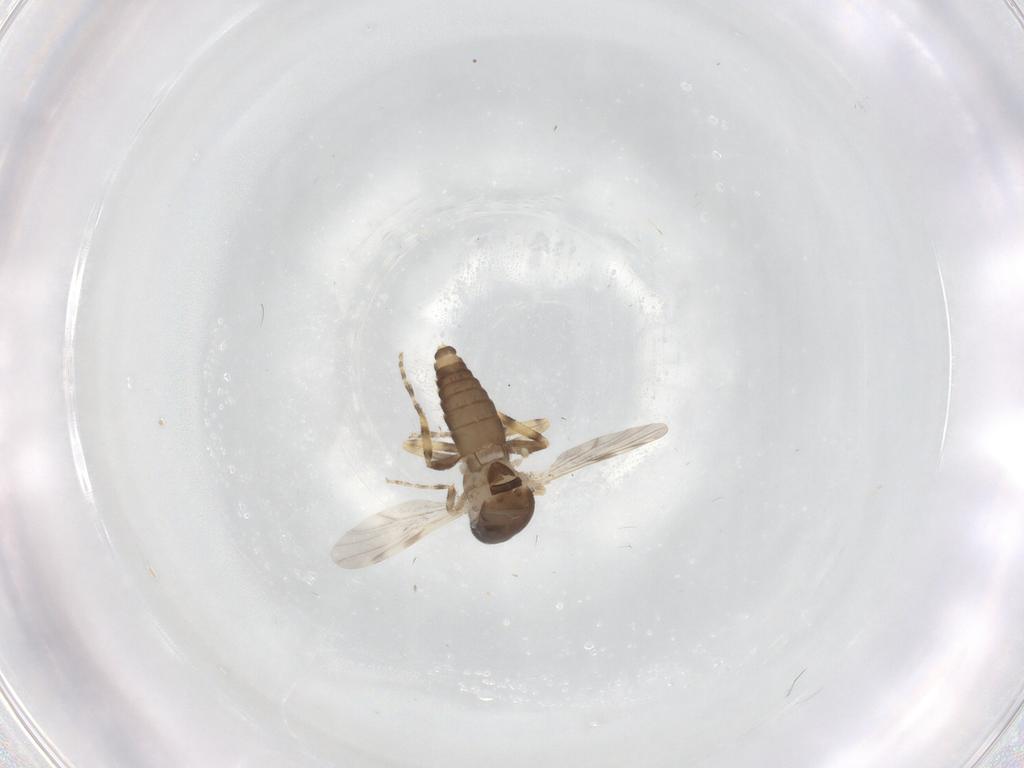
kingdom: Animalia
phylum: Arthropoda
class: Insecta
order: Diptera
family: Ceratopogonidae
